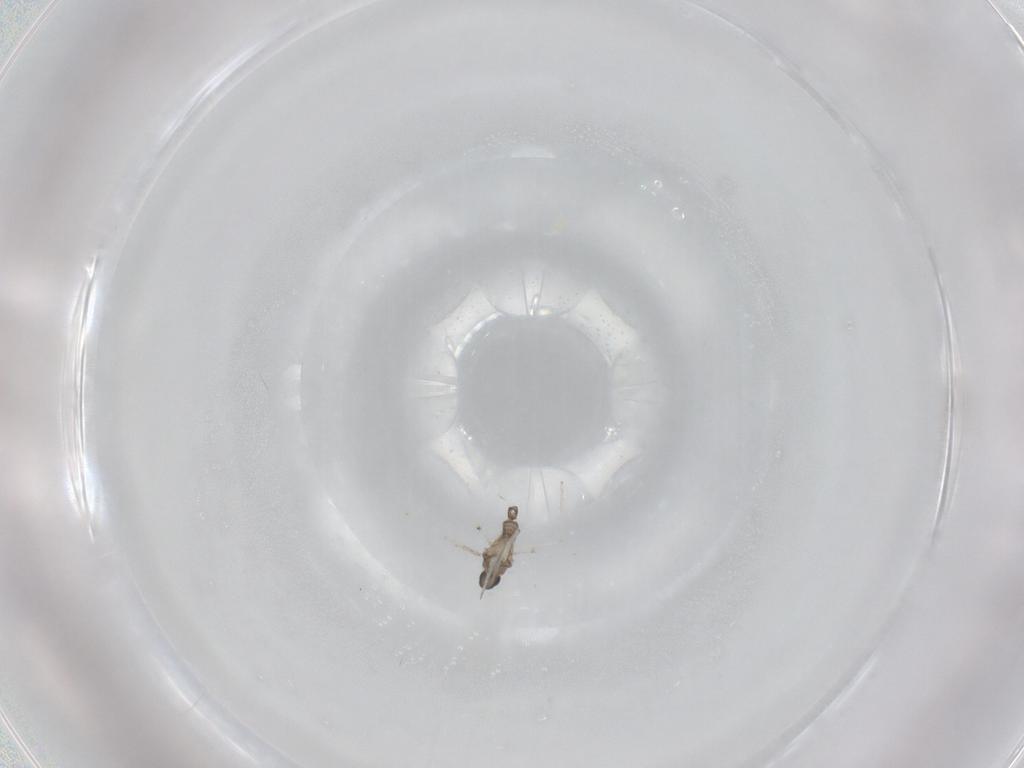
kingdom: Animalia
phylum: Arthropoda
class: Insecta
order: Diptera
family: Cecidomyiidae
